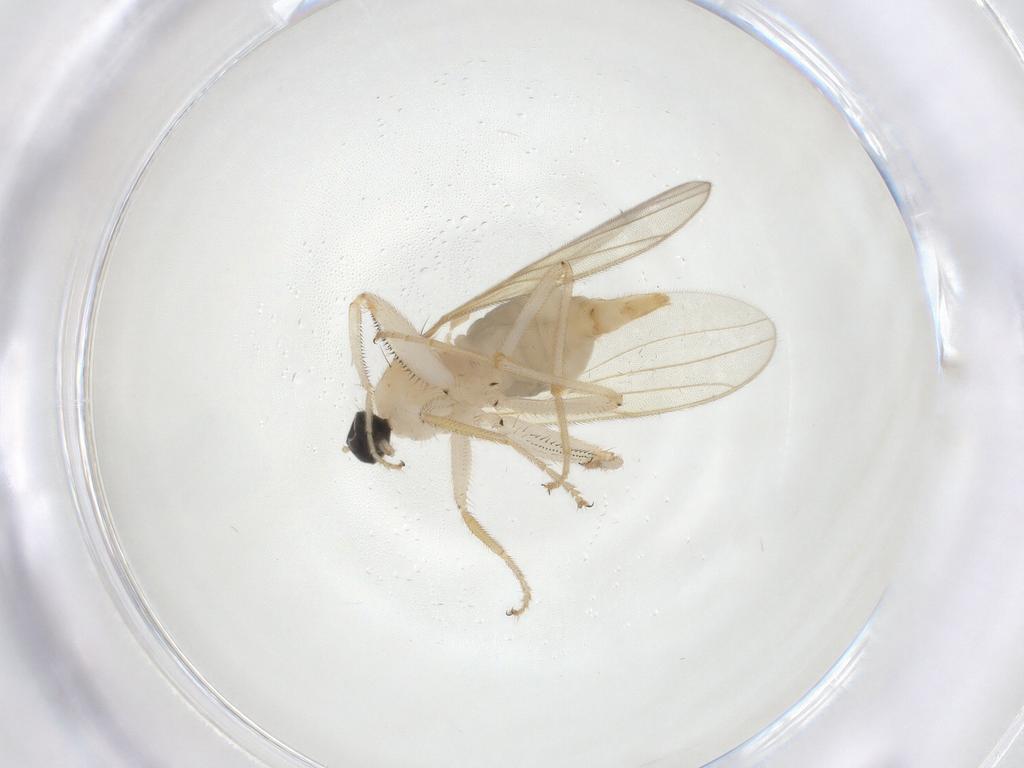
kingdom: Animalia
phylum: Arthropoda
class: Insecta
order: Diptera
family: Hybotidae
